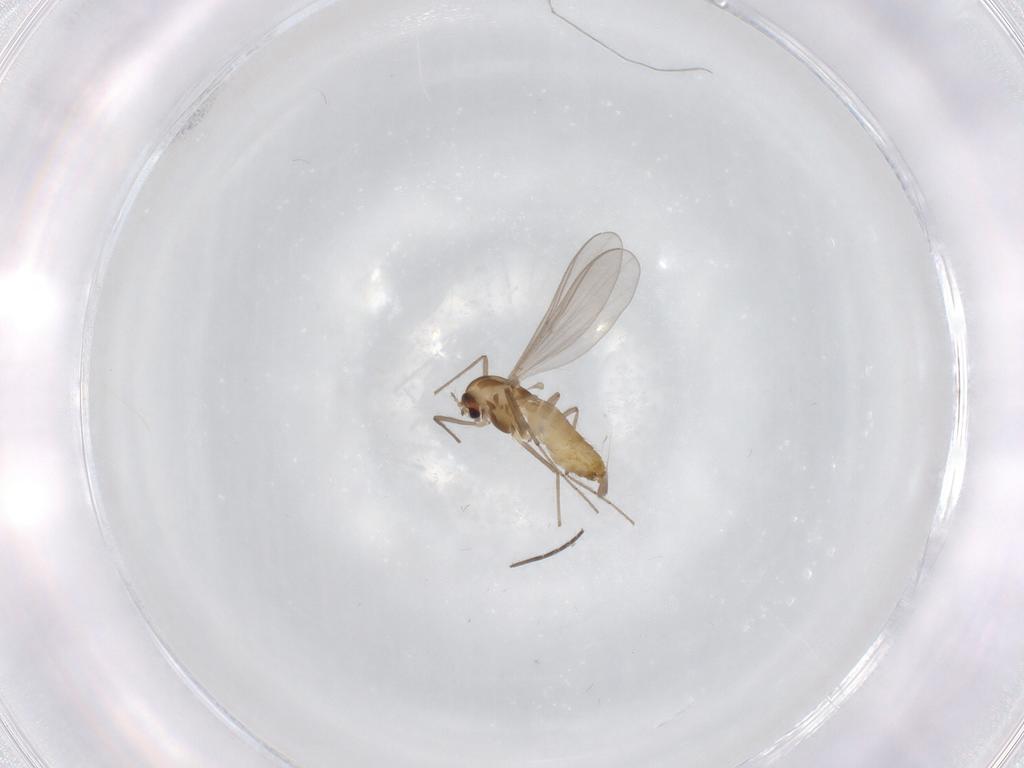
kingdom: Animalia
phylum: Arthropoda
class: Insecta
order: Diptera
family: Chironomidae
